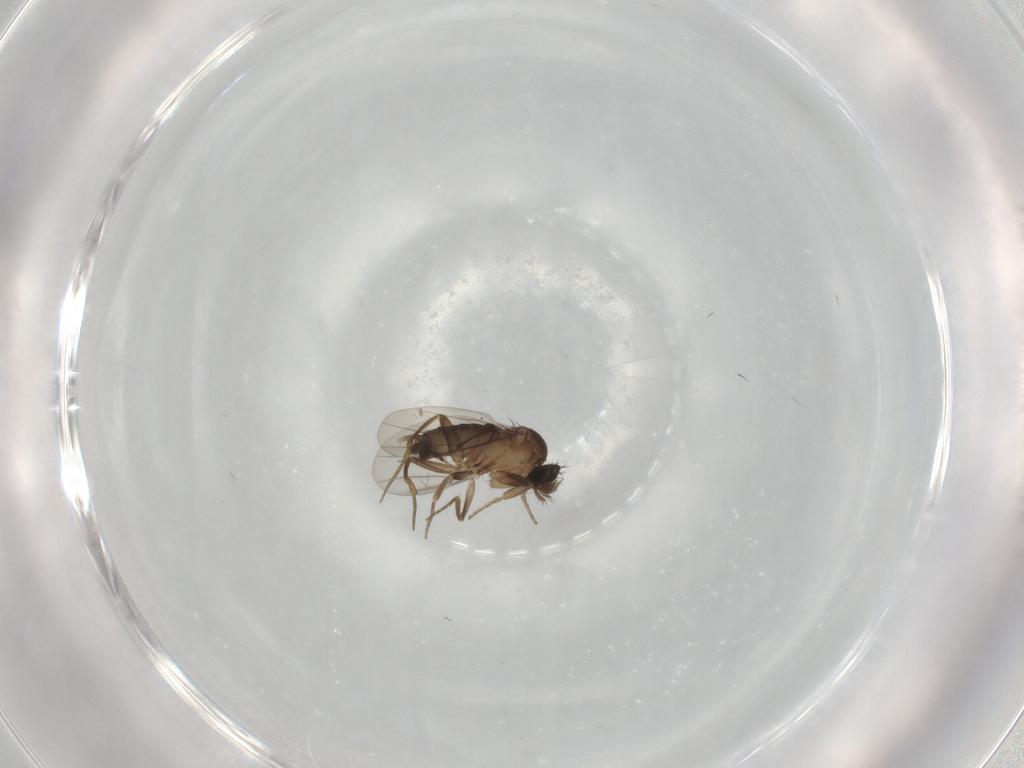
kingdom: Animalia
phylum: Arthropoda
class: Insecta
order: Diptera
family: Phoridae
